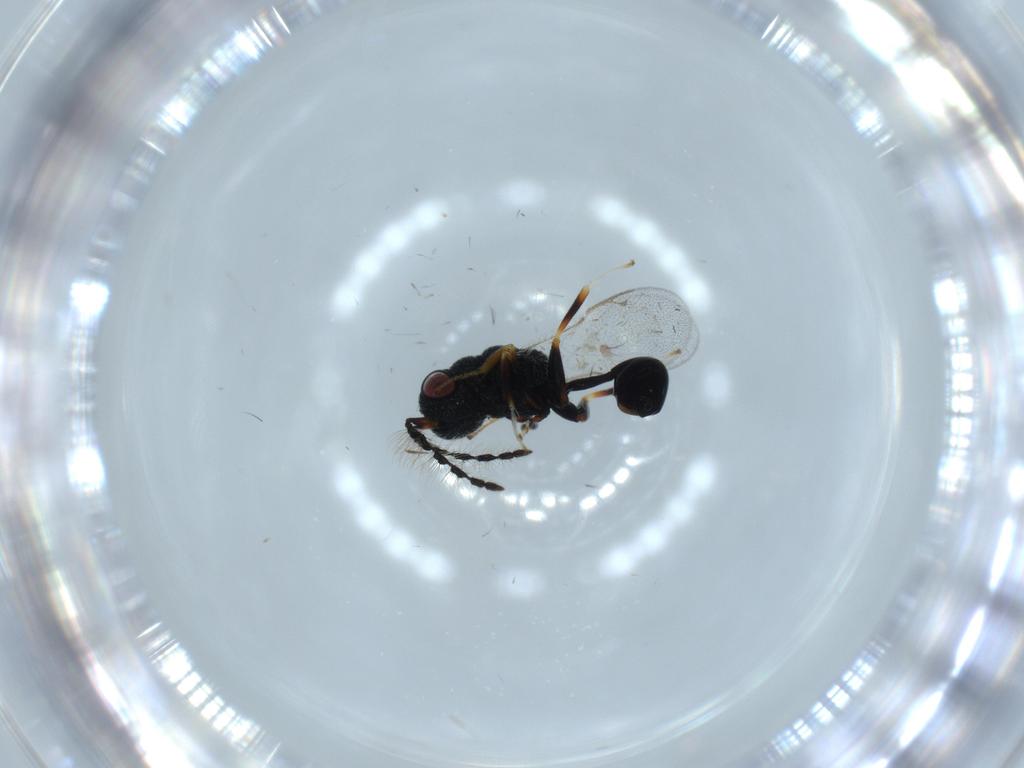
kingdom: Animalia
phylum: Arthropoda
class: Insecta
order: Hymenoptera
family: Eurytomidae
